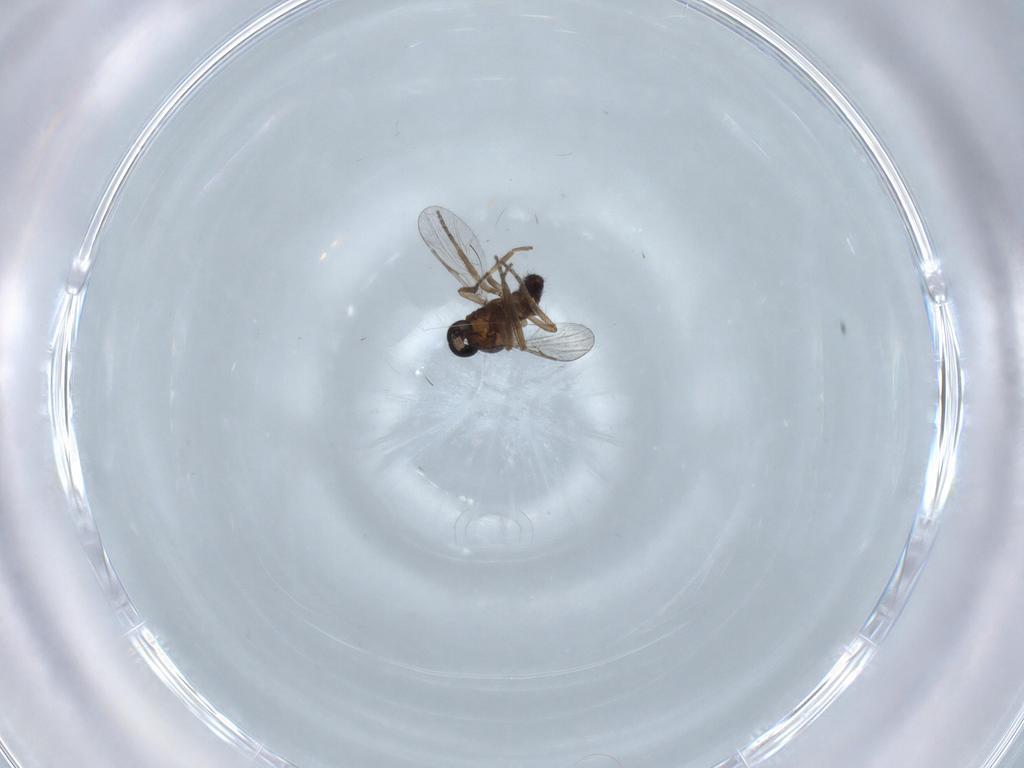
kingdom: Animalia
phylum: Arthropoda
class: Insecta
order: Diptera
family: Ceratopogonidae
